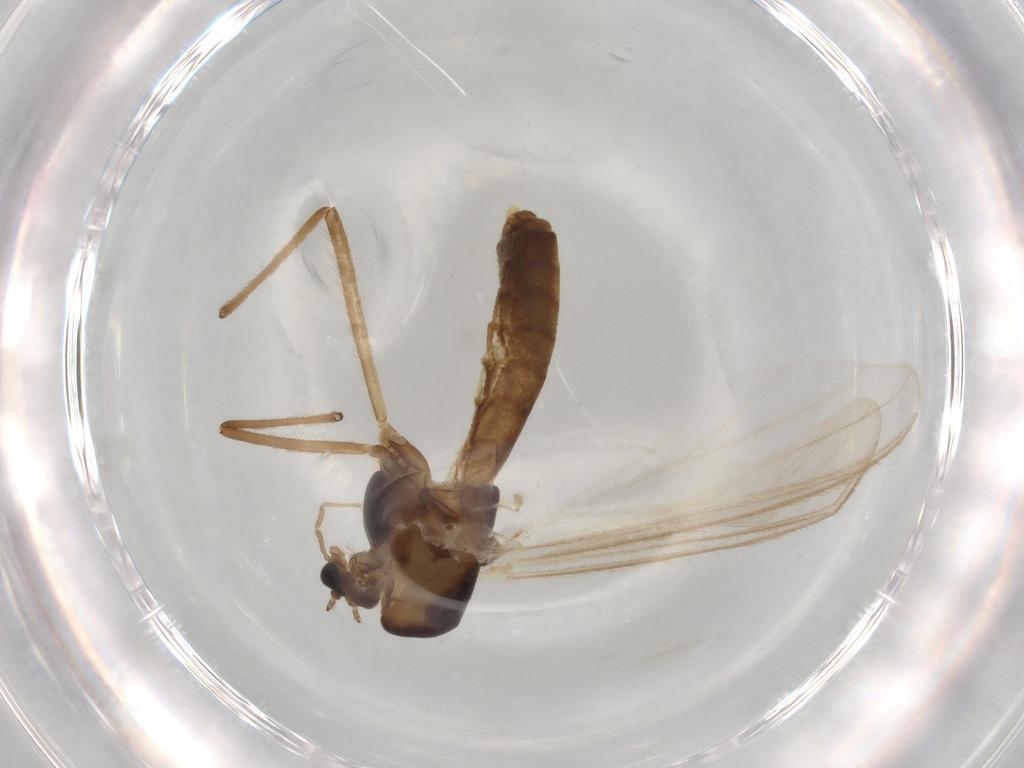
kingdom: Animalia
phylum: Arthropoda
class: Insecta
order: Diptera
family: Chironomidae
